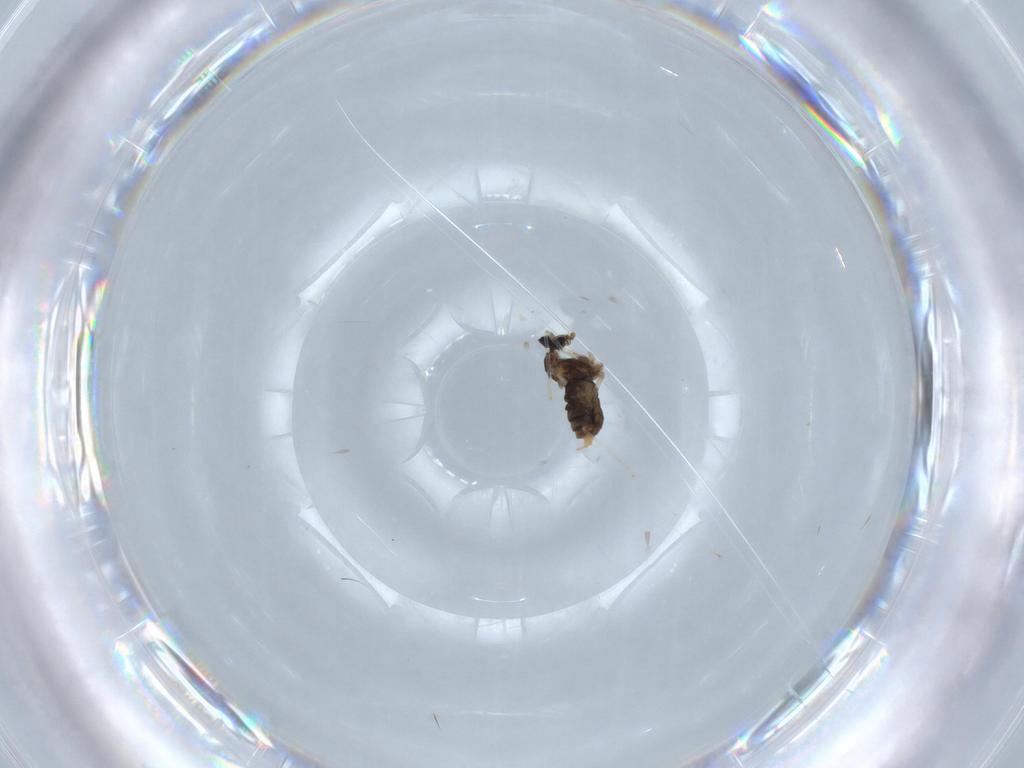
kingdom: Animalia
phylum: Arthropoda
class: Insecta
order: Diptera
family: Cecidomyiidae
